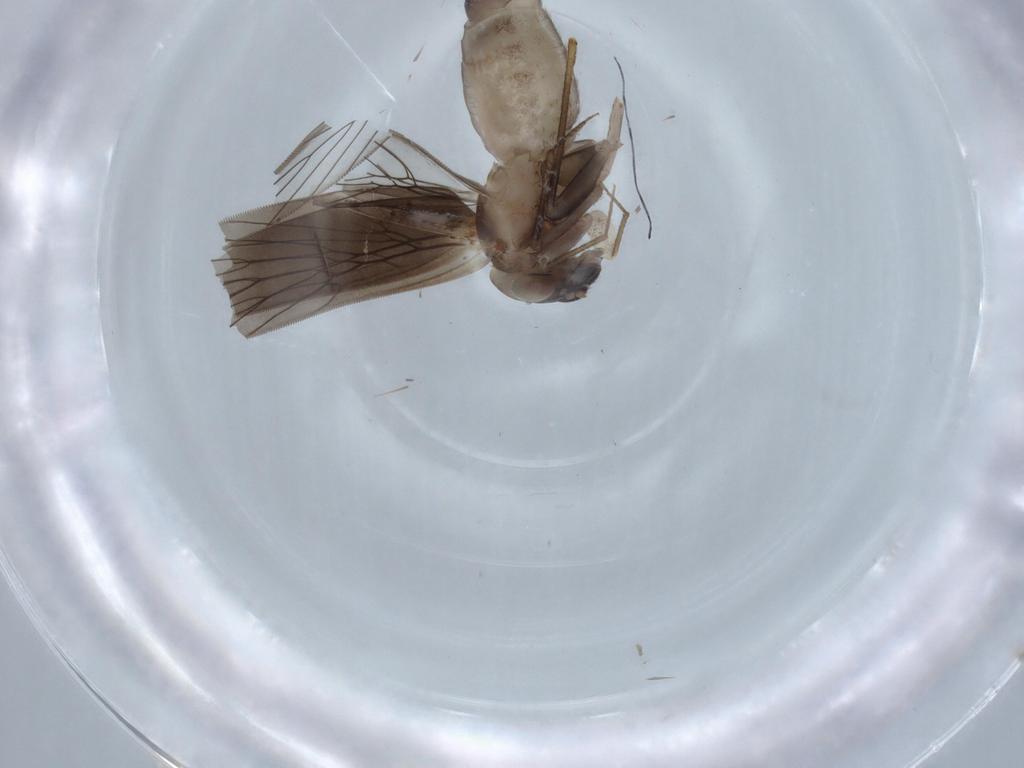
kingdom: Animalia
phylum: Arthropoda
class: Insecta
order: Psocodea
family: Lepidopsocidae
